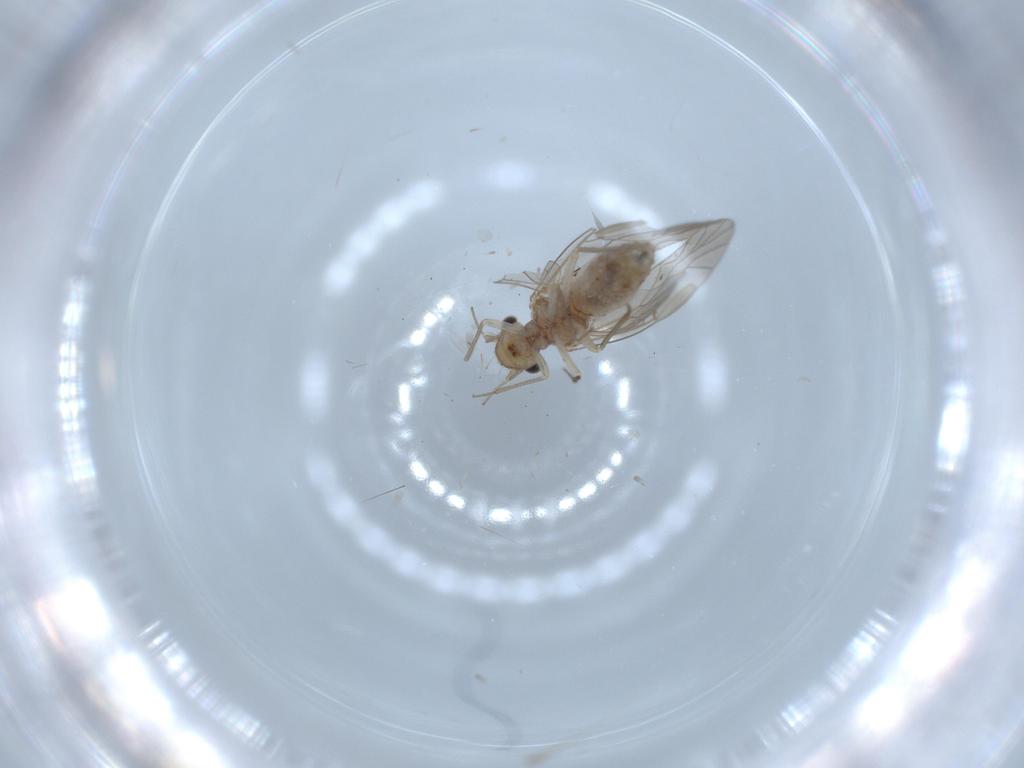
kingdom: Animalia
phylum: Arthropoda
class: Insecta
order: Psocodea
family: Lachesillidae
